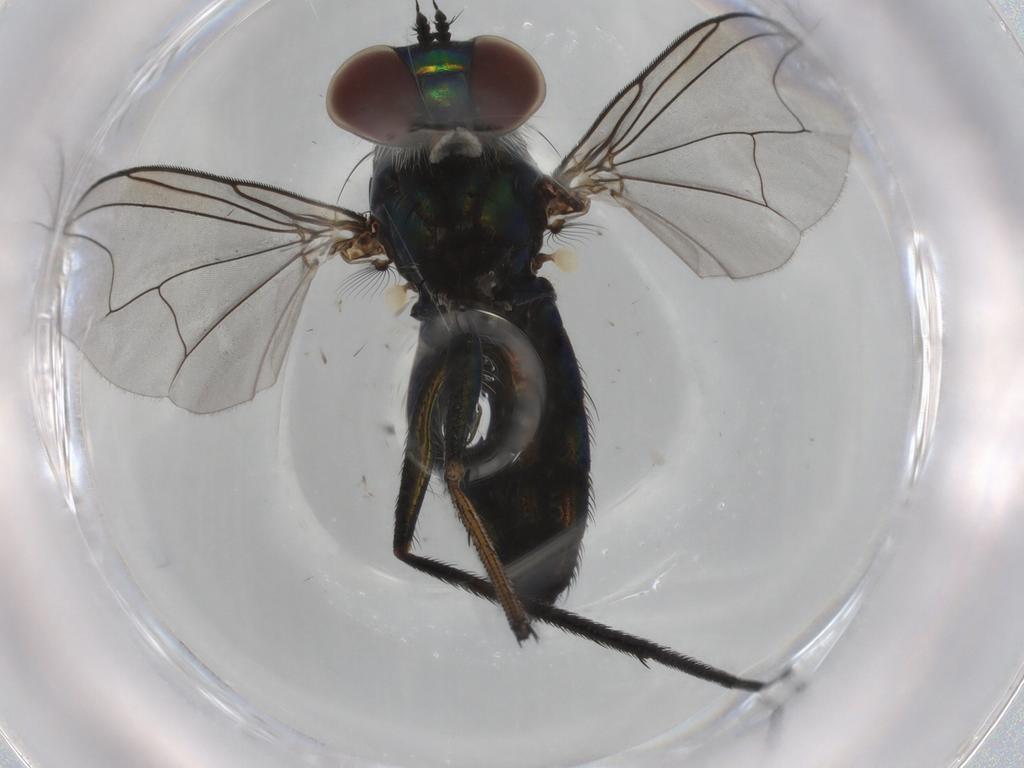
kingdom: Animalia
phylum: Arthropoda
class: Insecta
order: Diptera
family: Dolichopodidae
